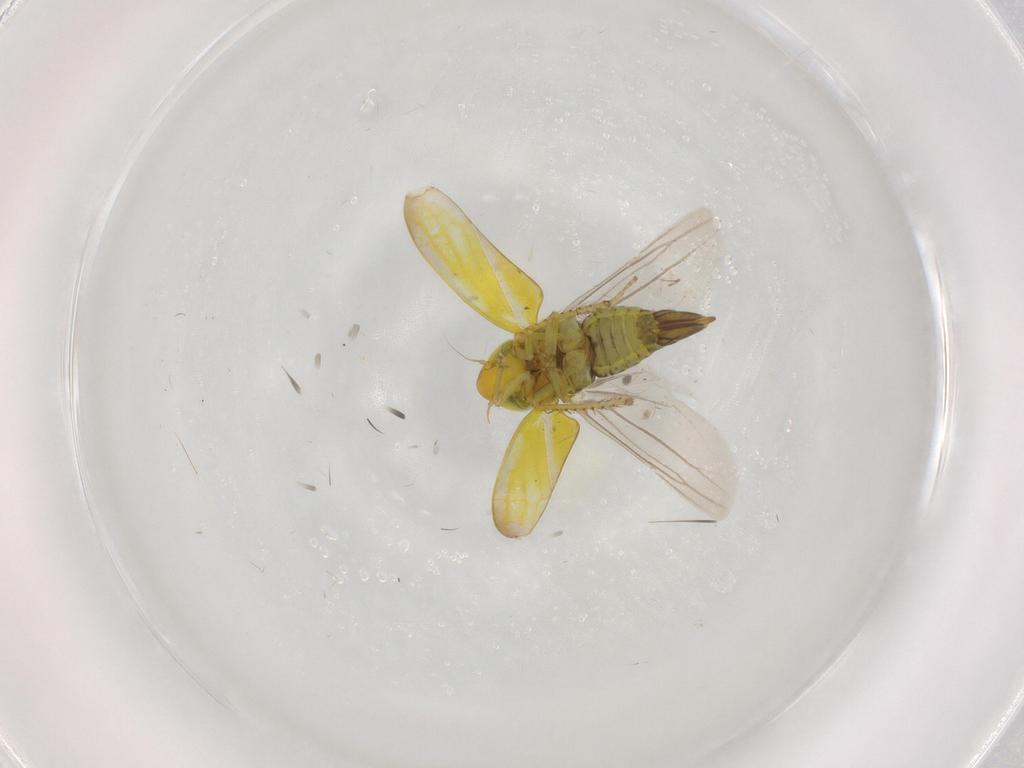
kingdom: Animalia
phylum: Arthropoda
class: Insecta
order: Hemiptera
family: Cicadellidae
